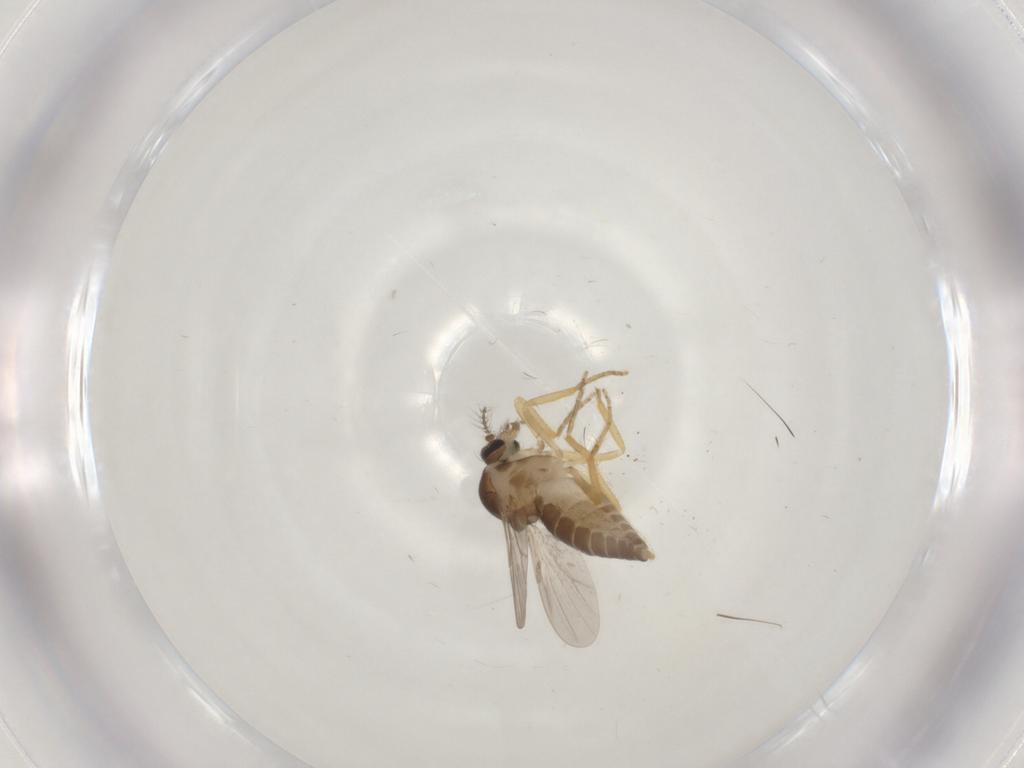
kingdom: Animalia
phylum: Arthropoda
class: Insecta
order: Diptera
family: Ceratopogonidae
